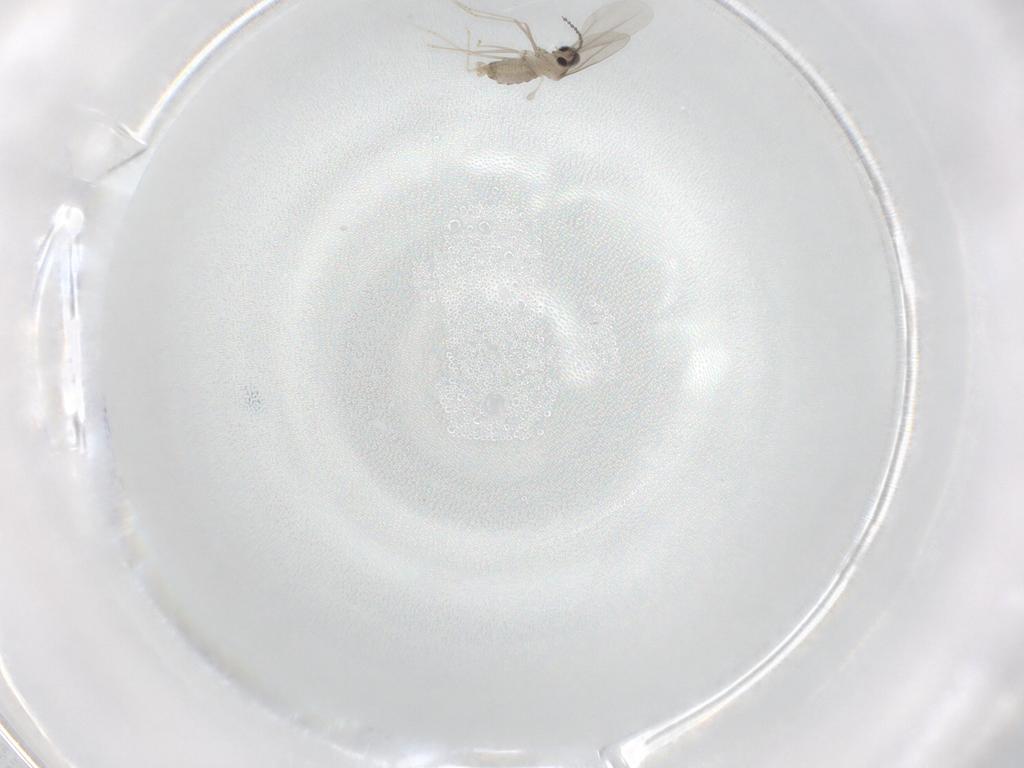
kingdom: Animalia
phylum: Arthropoda
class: Insecta
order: Diptera
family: Cecidomyiidae
